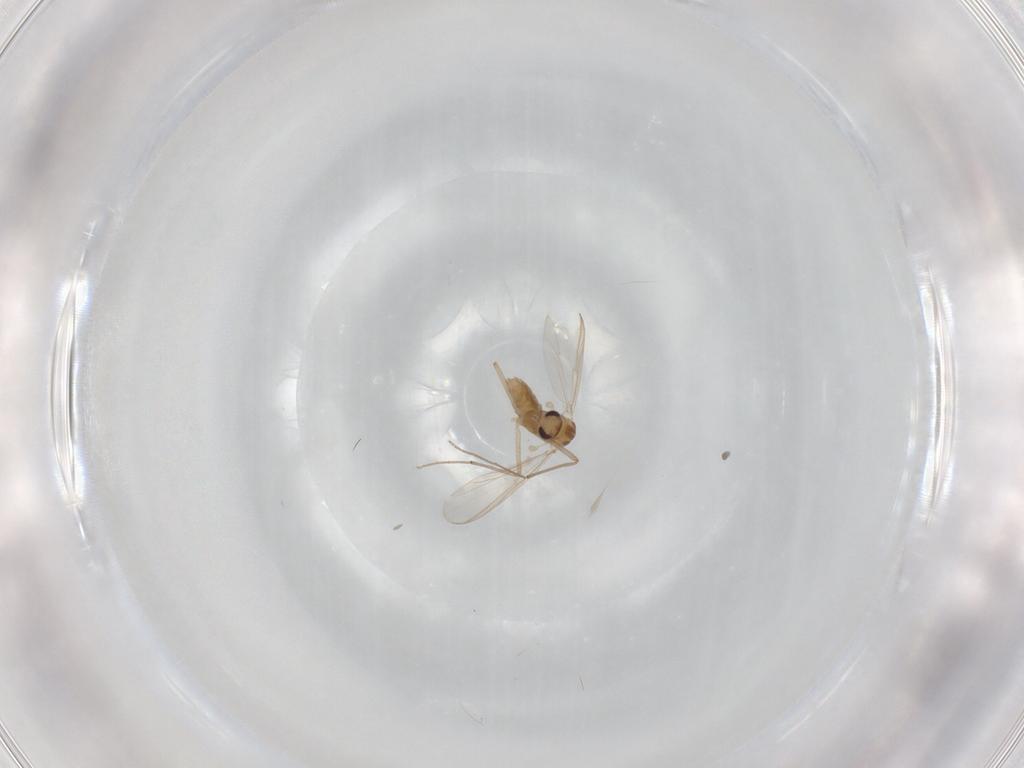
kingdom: Animalia
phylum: Arthropoda
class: Insecta
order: Diptera
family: Chironomidae
